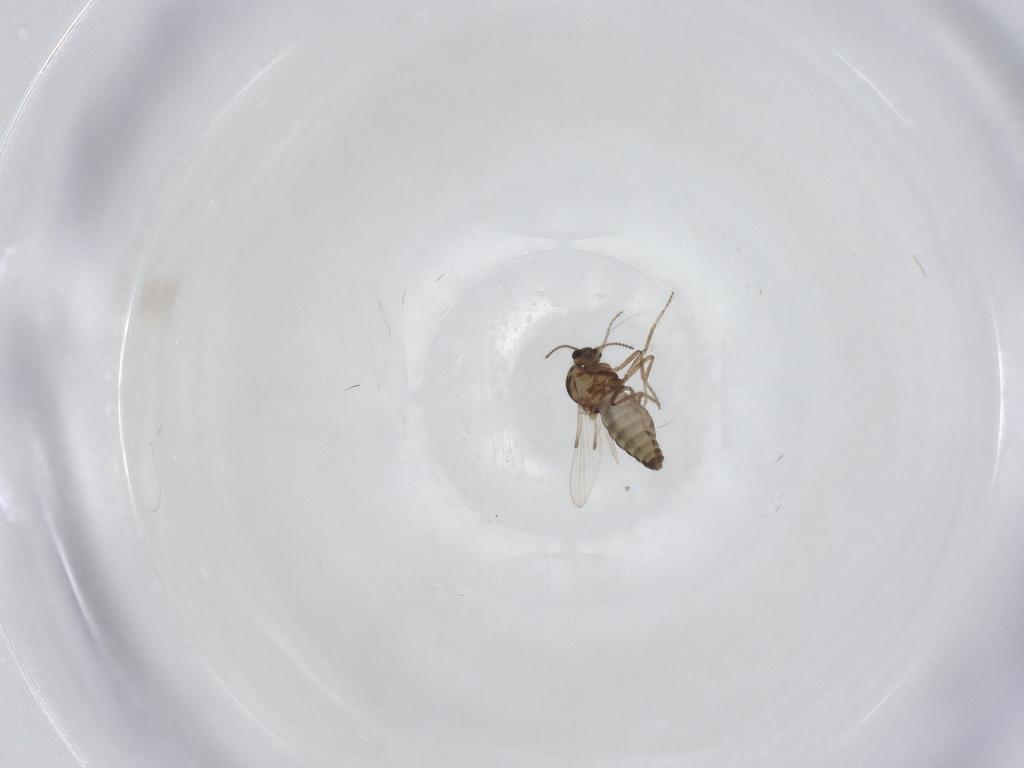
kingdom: Animalia
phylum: Arthropoda
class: Insecta
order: Diptera
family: Ceratopogonidae
